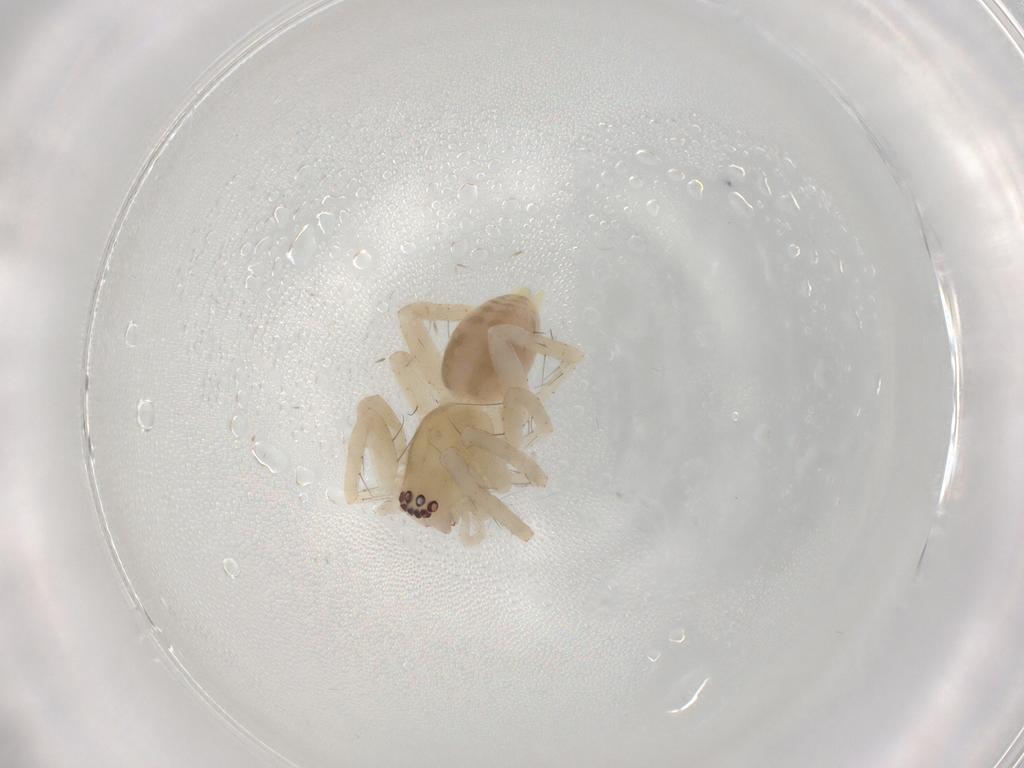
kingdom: Animalia
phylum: Arthropoda
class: Arachnida
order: Araneae
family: Anyphaenidae
